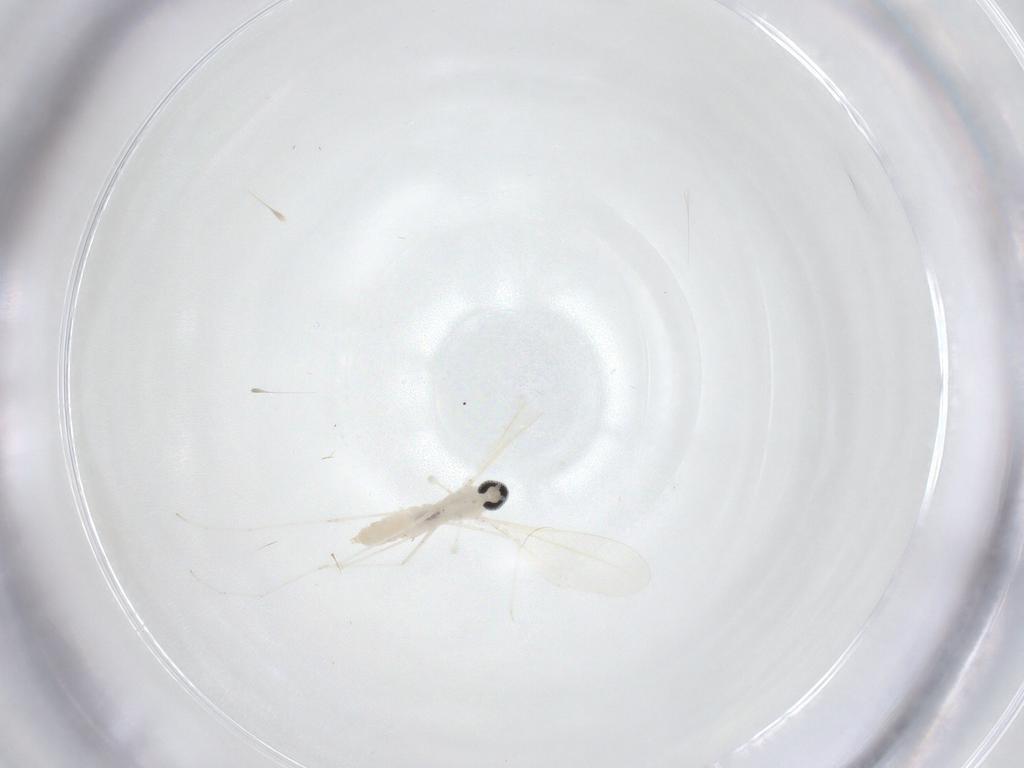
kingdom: Animalia
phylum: Arthropoda
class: Insecta
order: Diptera
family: Cecidomyiidae
